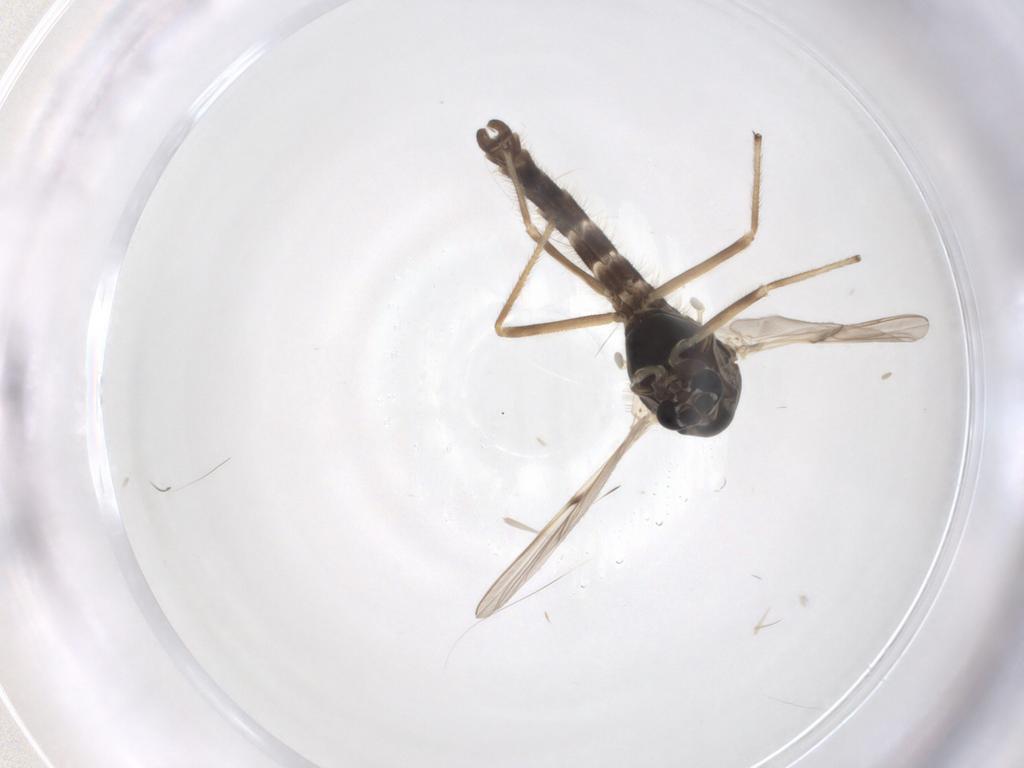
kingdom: Animalia
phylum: Arthropoda
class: Insecta
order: Diptera
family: Chironomidae
